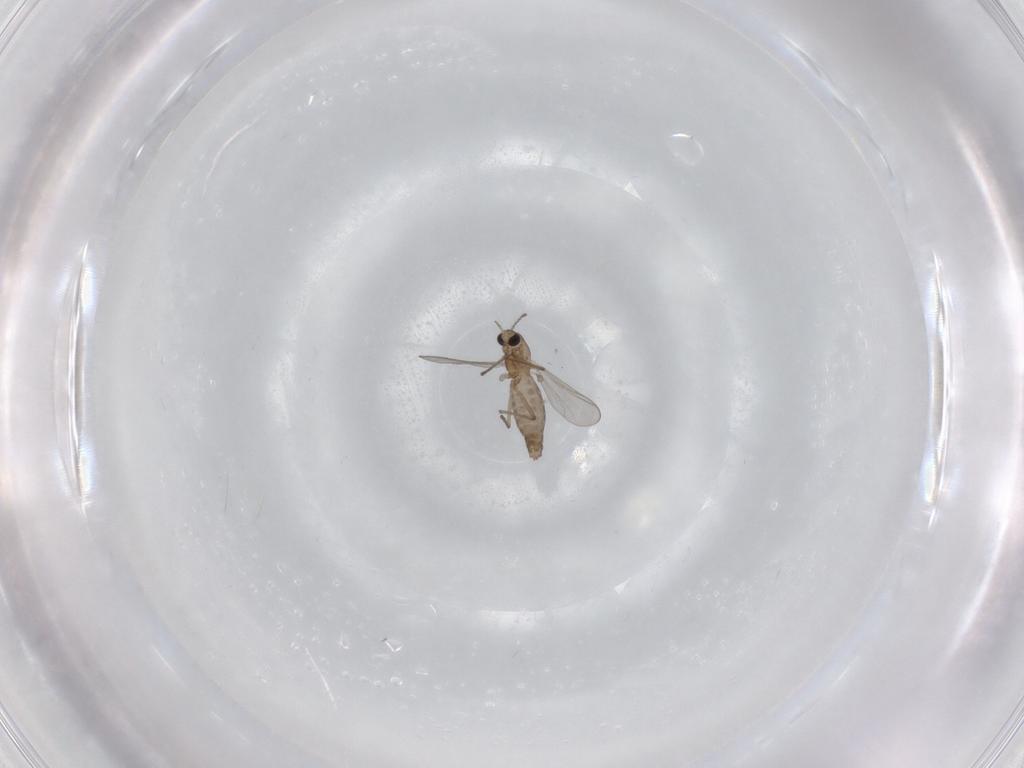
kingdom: Animalia
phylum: Arthropoda
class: Insecta
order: Diptera
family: Chironomidae
